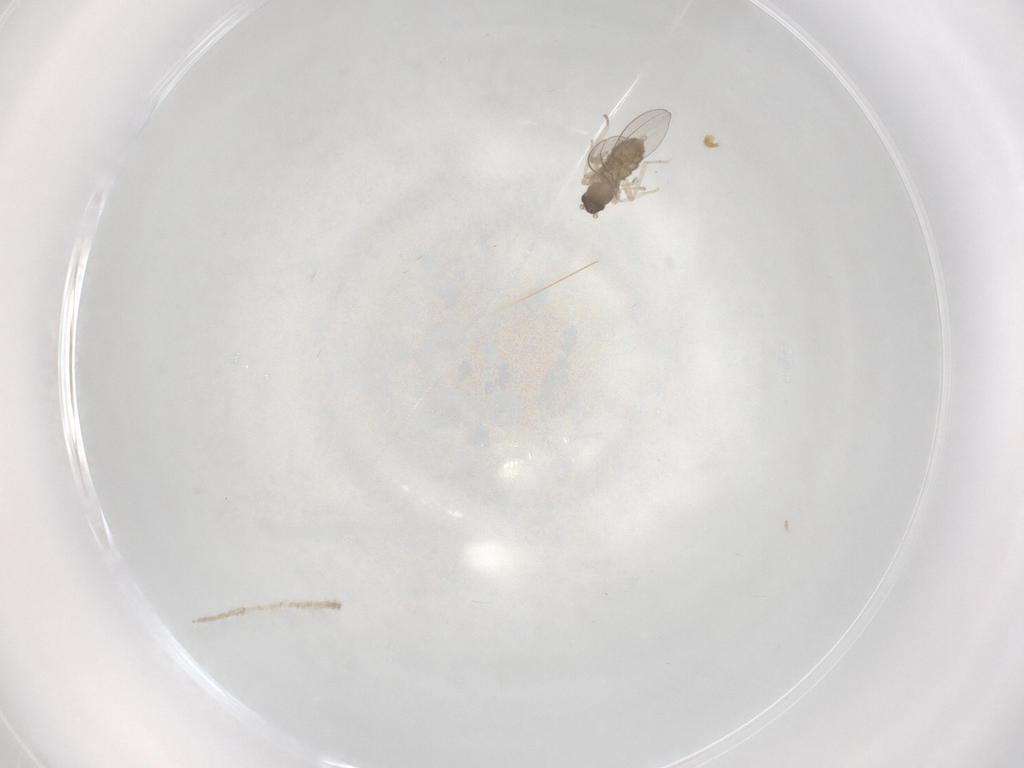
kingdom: Animalia
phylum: Arthropoda
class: Insecta
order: Diptera
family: Cecidomyiidae
